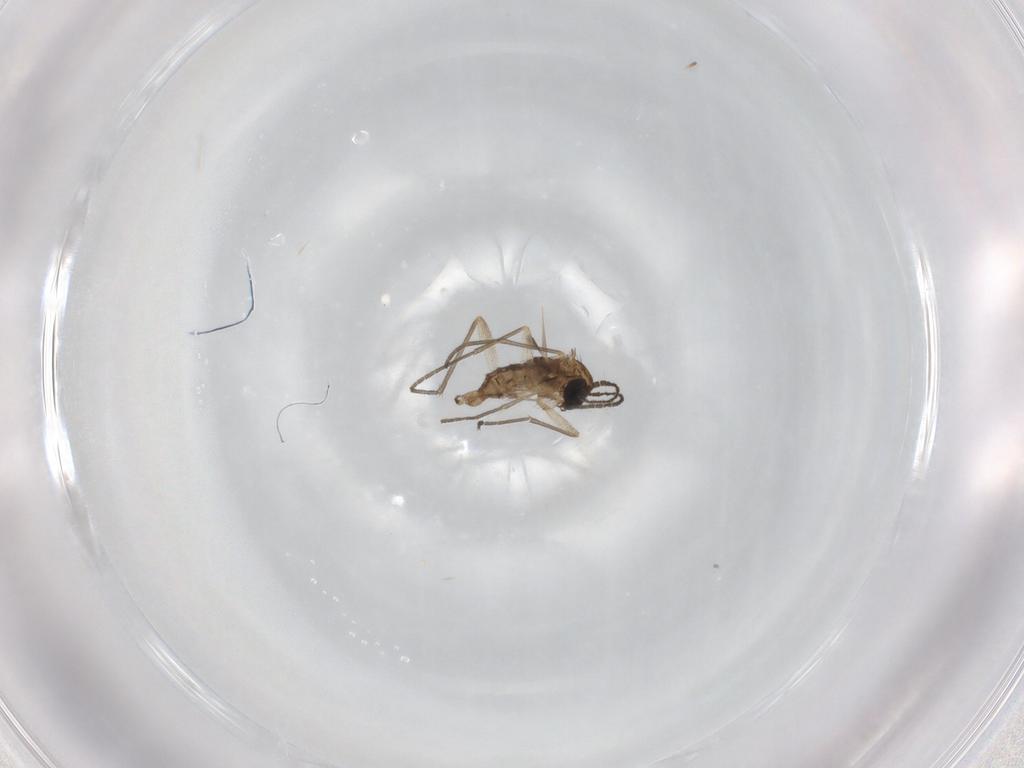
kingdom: Animalia
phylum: Arthropoda
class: Insecta
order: Diptera
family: Sciaridae
